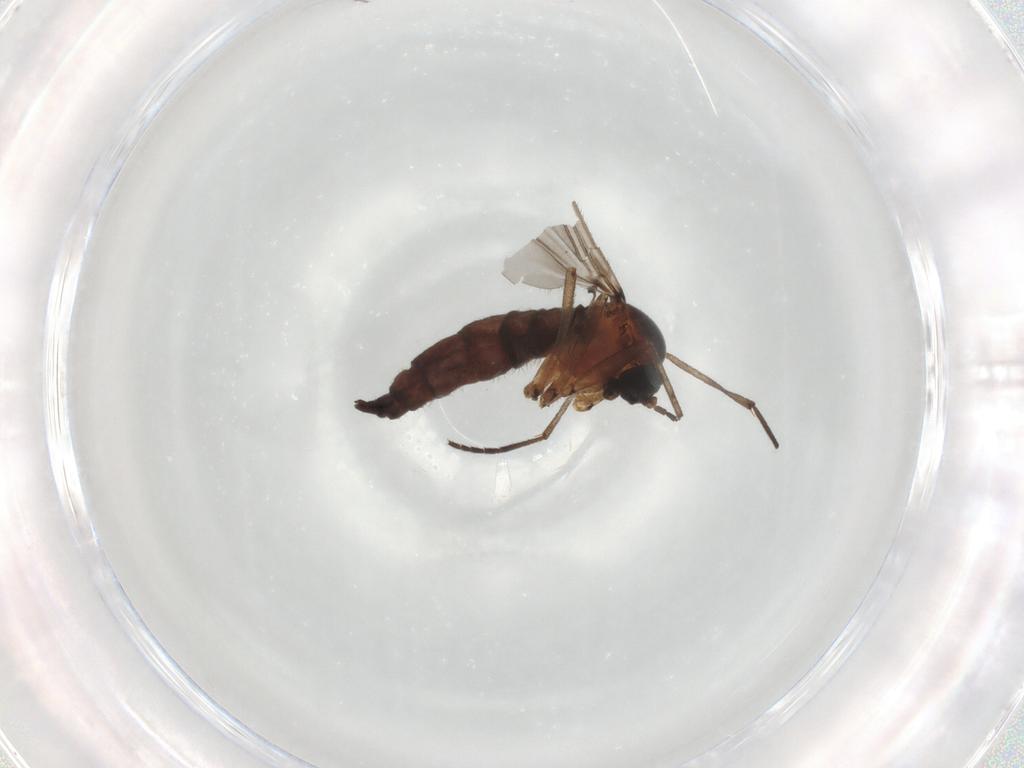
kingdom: Animalia
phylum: Arthropoda
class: Insecta
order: Diptera
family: Sciaridae
